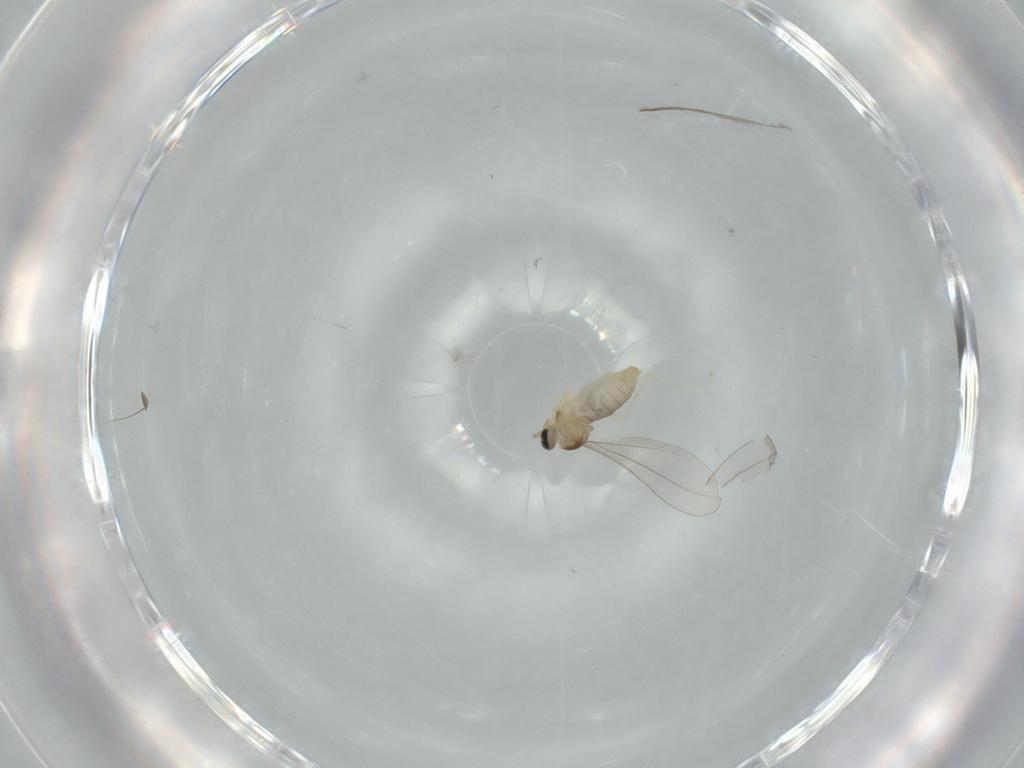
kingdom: Animalia
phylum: Arthropoda
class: Insecta
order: Diptera
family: Cecidomyiidae
